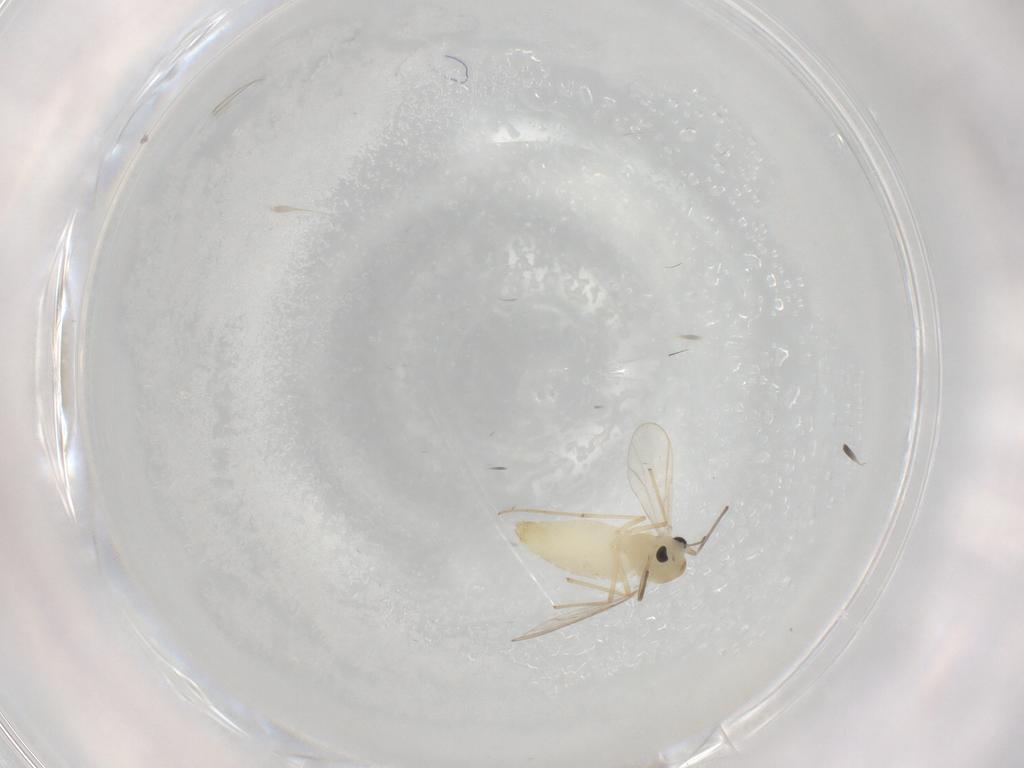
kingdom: Animalia
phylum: Arthropoda
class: Insecta
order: Diptera
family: Chironomidae
